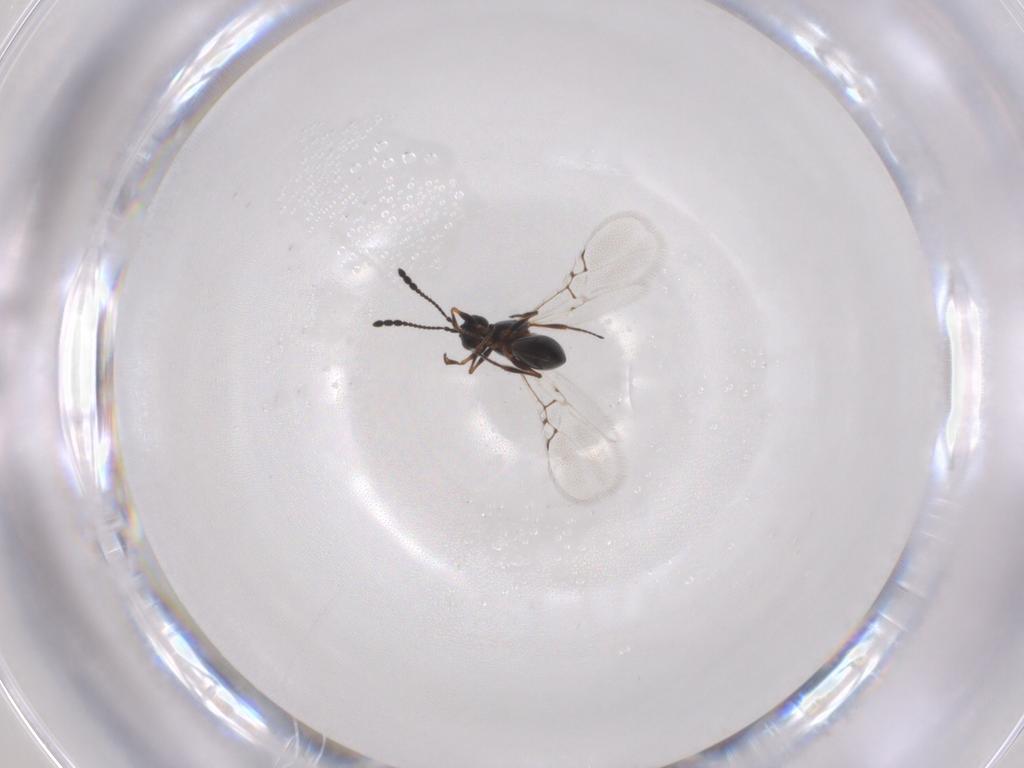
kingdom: Animalia
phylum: Arthropoda
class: Insecta
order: Hymenoptera
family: Figitidae
